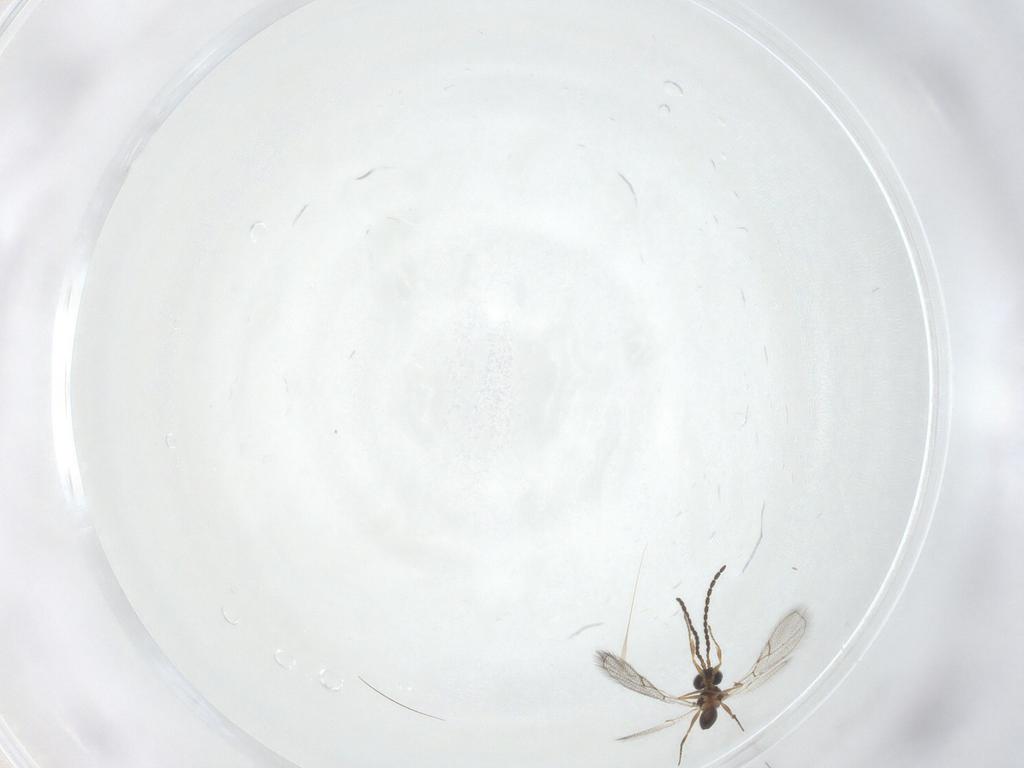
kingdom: Animalia
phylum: Arthropoda
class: Insecta
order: Hymenoptera
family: Figitidae
